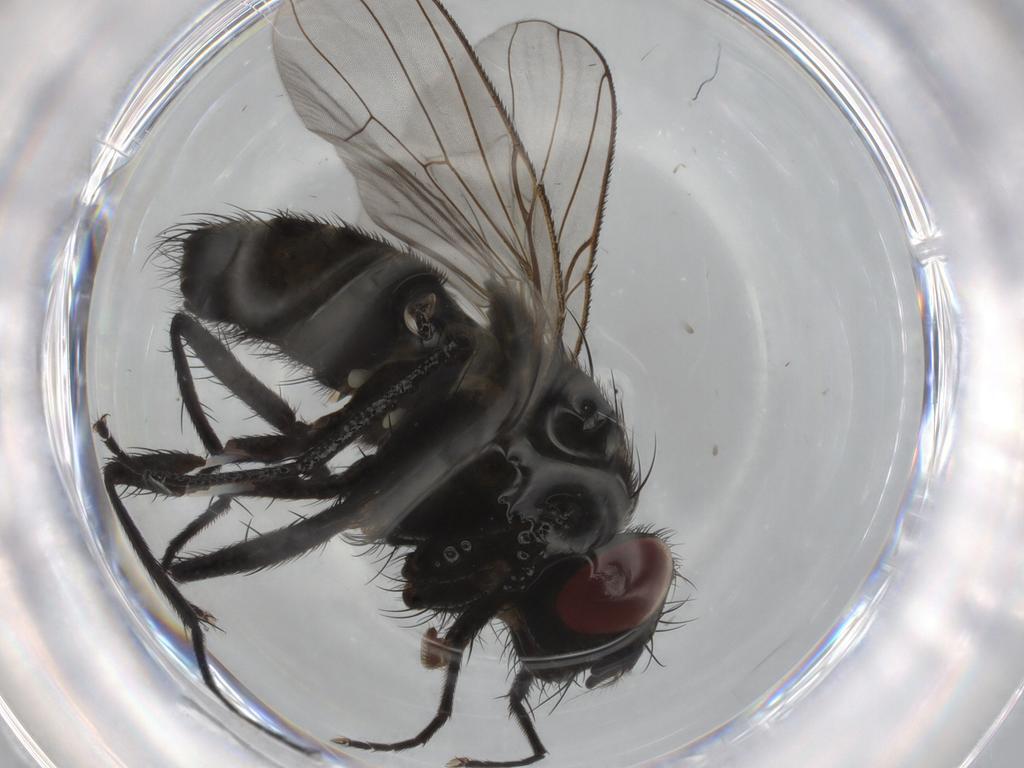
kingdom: Animalia
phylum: Arthropoda
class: Insecta
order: Diptera
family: Muscidae
